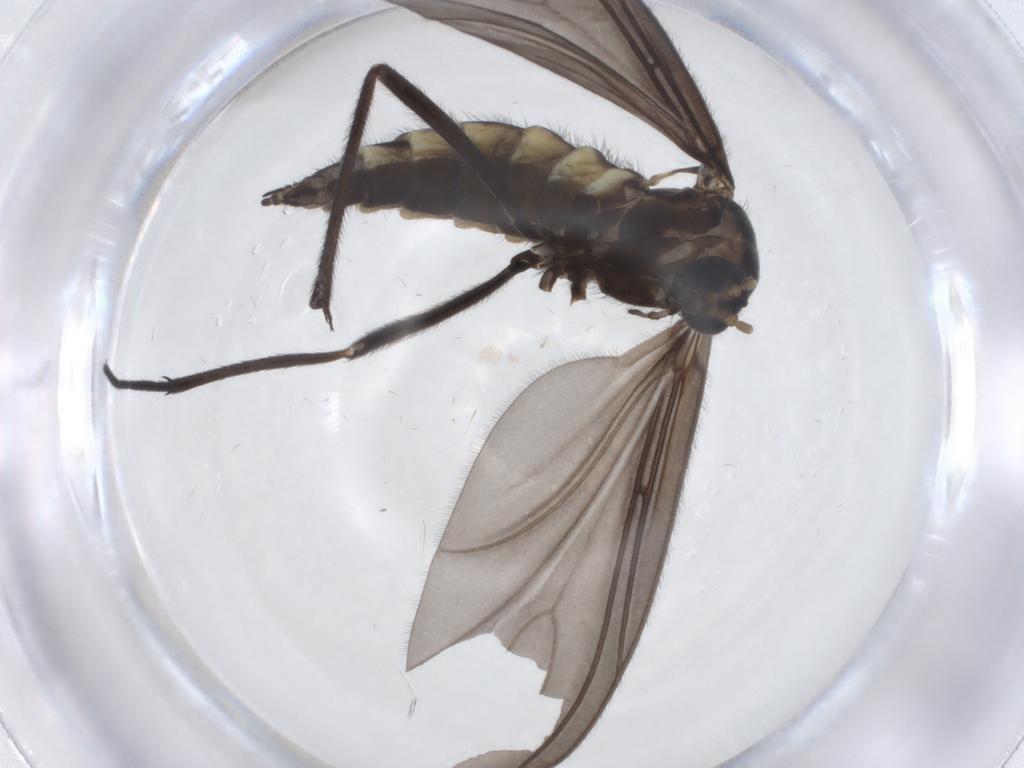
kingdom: Animalia
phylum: Arthropoda
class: Insecta
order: Diptera
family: Sciaridae
